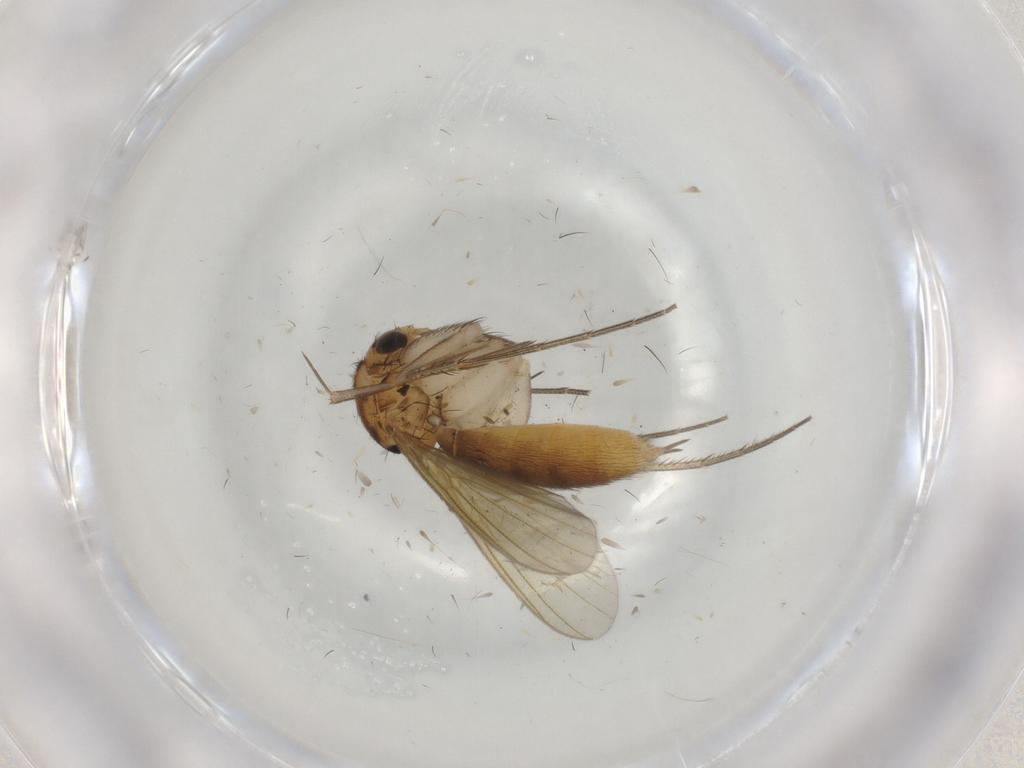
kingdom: Animalia
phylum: Arthropoda
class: Insecta
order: Diptera
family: Mycetophilidae
